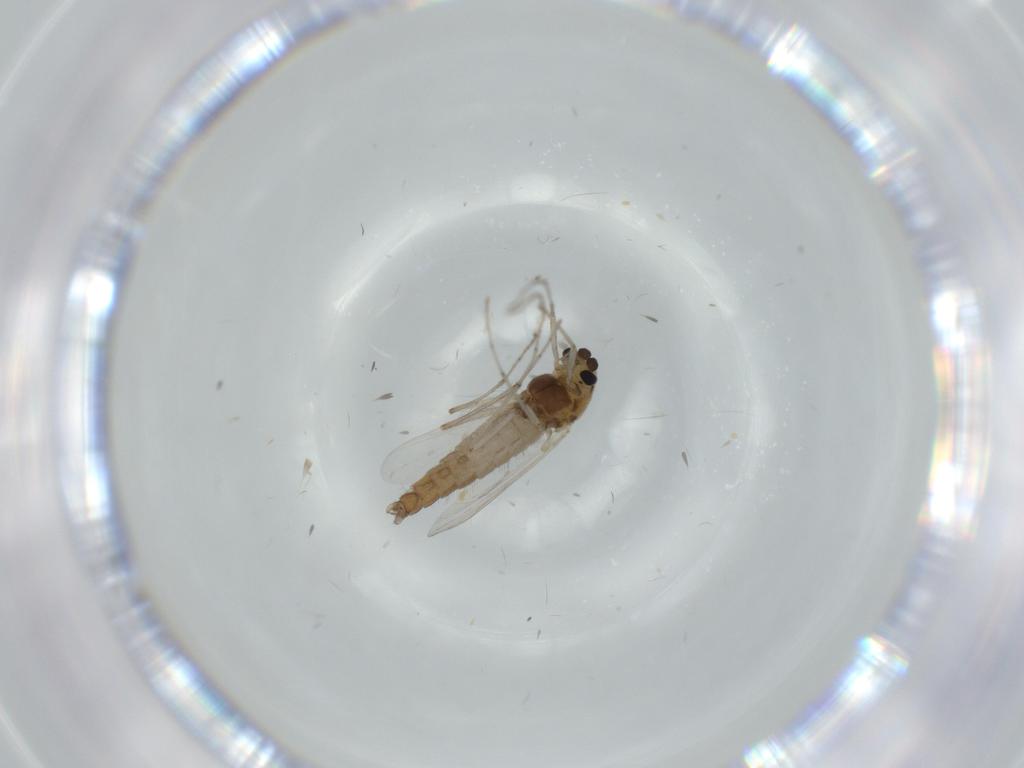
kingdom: Animalia
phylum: Arthropoda
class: Insecta
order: Diptera
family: Chironomidae
